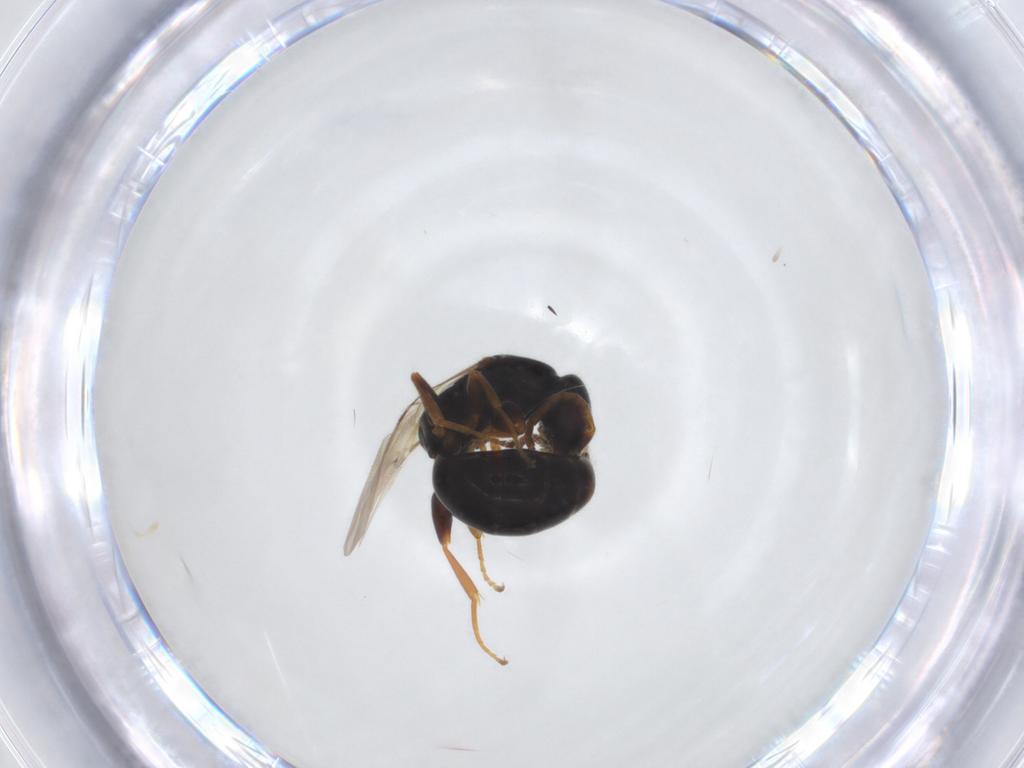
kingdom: Animalia
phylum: Arthropoda
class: Insecta
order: Hymenoptera
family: Bethylidae
